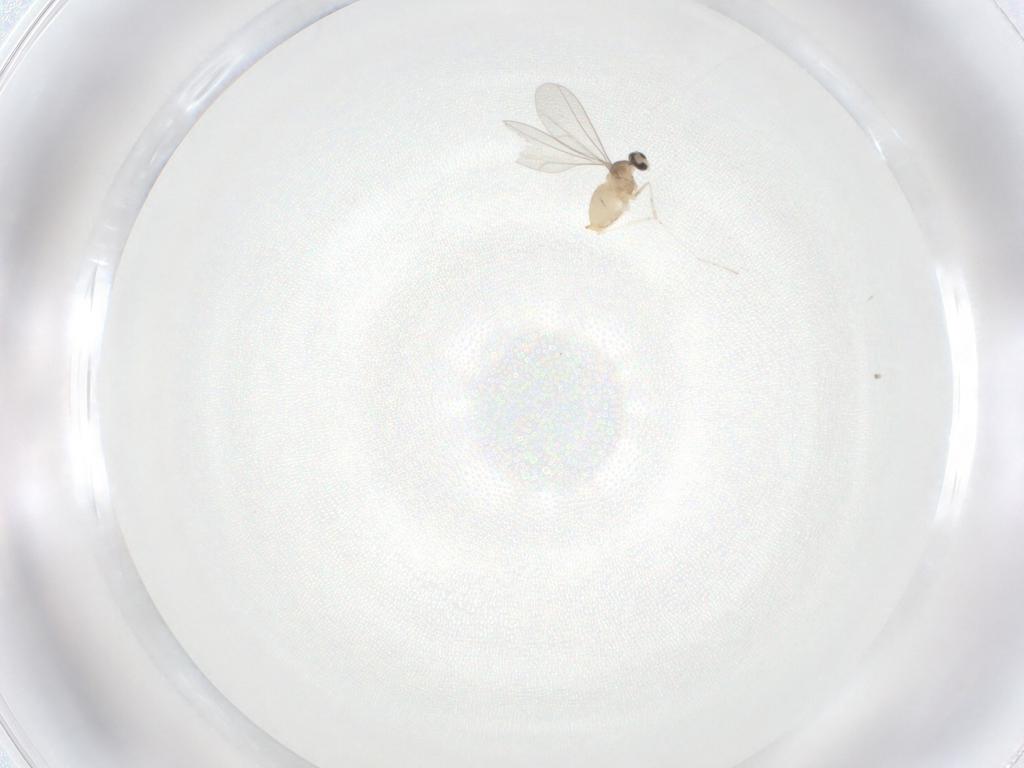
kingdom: Animalia
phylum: Arthropoda
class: Insecta
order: Diptera
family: Cecidomyiidae
